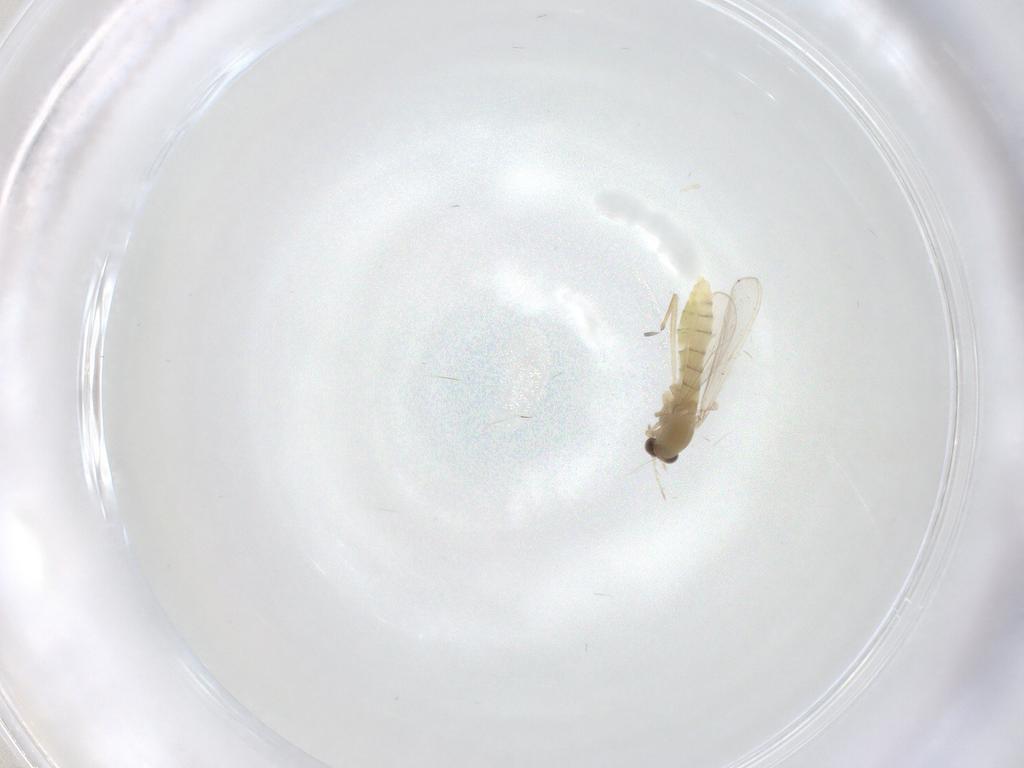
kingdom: Animalia
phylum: Arthropoda
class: Insecta
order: Diptera
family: Chironomidae
